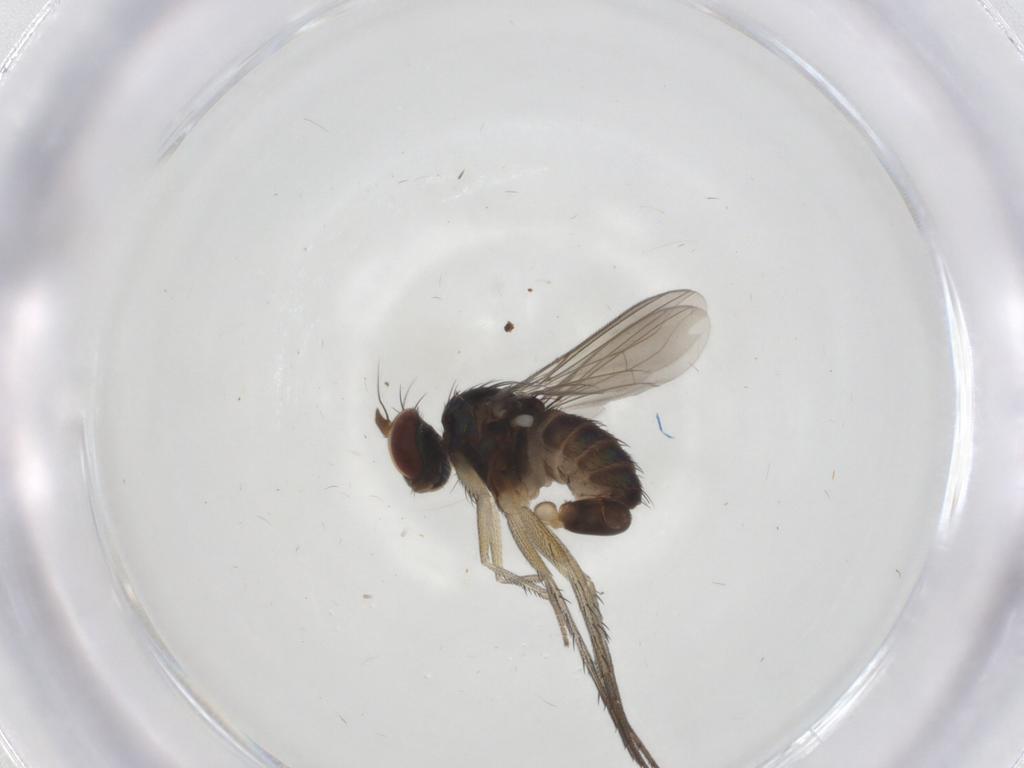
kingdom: Animalia
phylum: Arthropoda
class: Insecta
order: Diptera
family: Dolichopodidae
